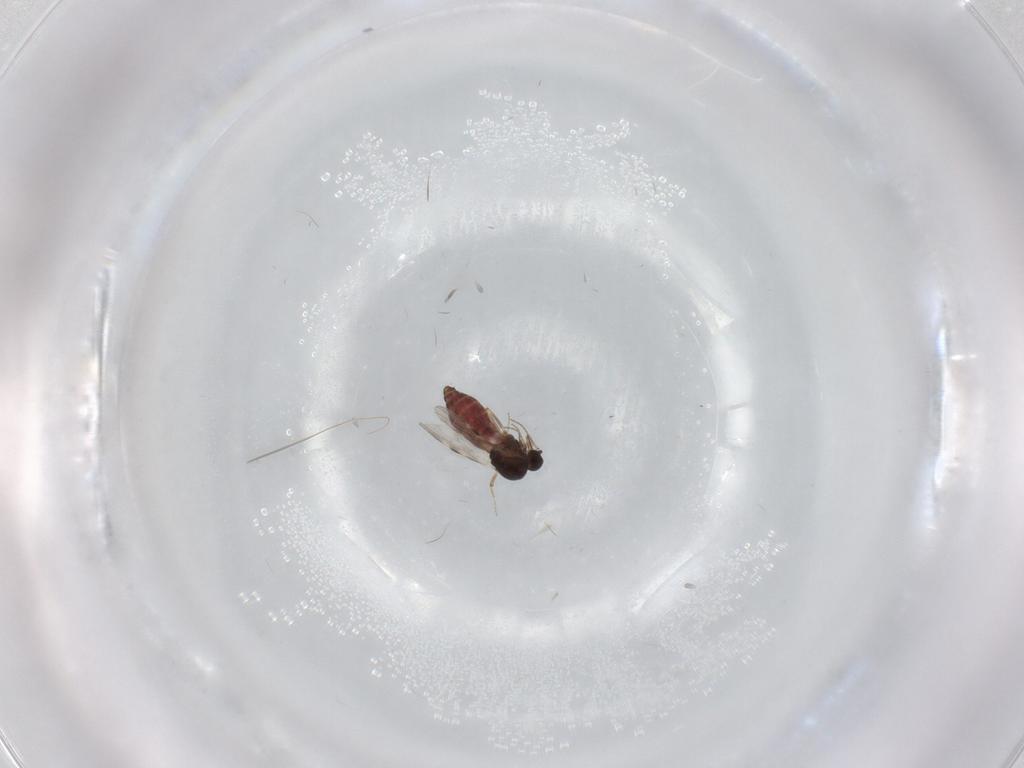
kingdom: Animalia
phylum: Arthropoda
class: Insecta
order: Diptera
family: Hybotidae
